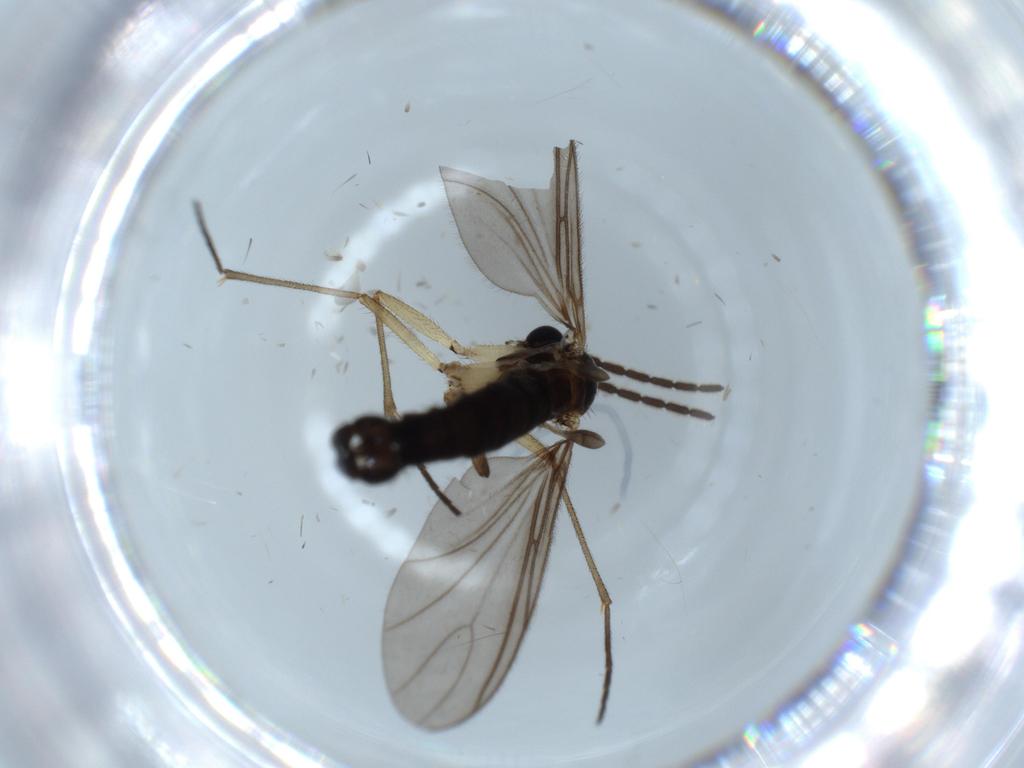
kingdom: Animalia
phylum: Arthropoda
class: Insecta
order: Diptera
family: Sciaridae
